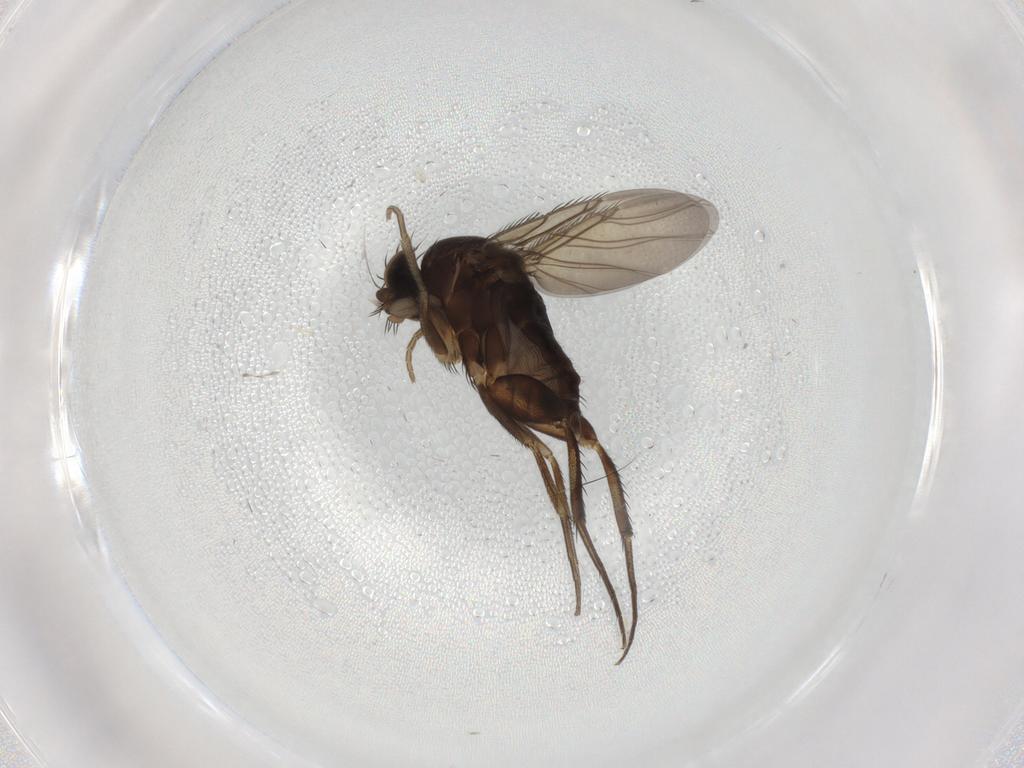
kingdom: Animalia
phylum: Arthropoda
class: Insecta
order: Diptera
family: Phoridae
